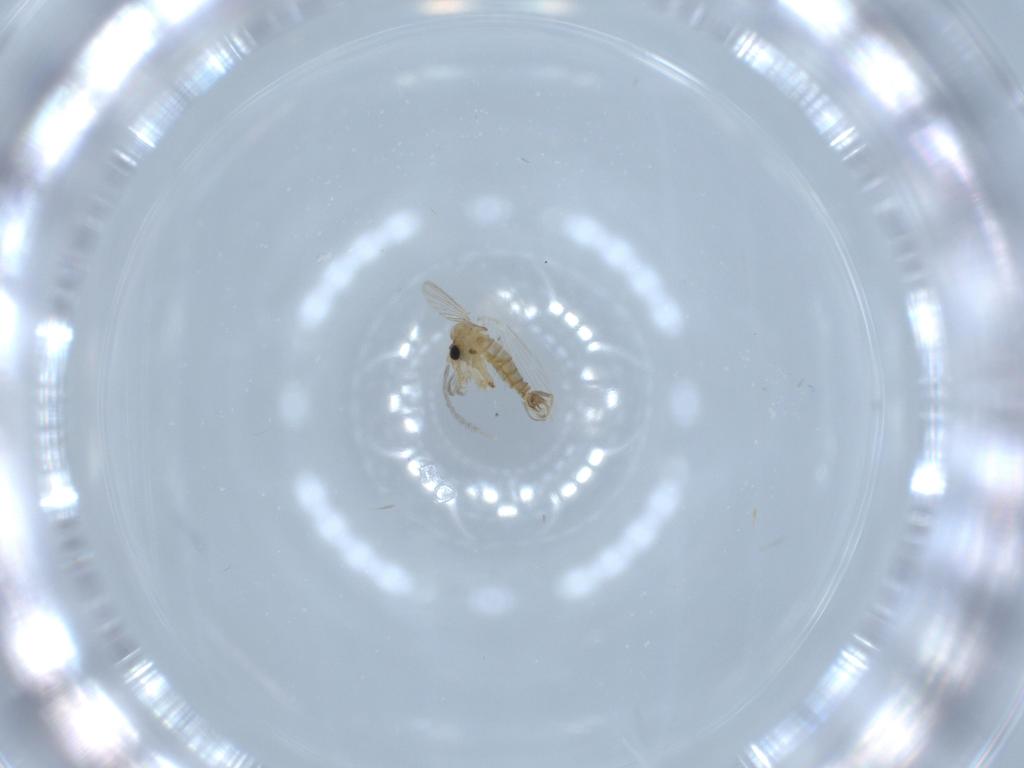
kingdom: Animalia
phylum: Arthropoda
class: Insecta
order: Diptera
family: Psychodidae
